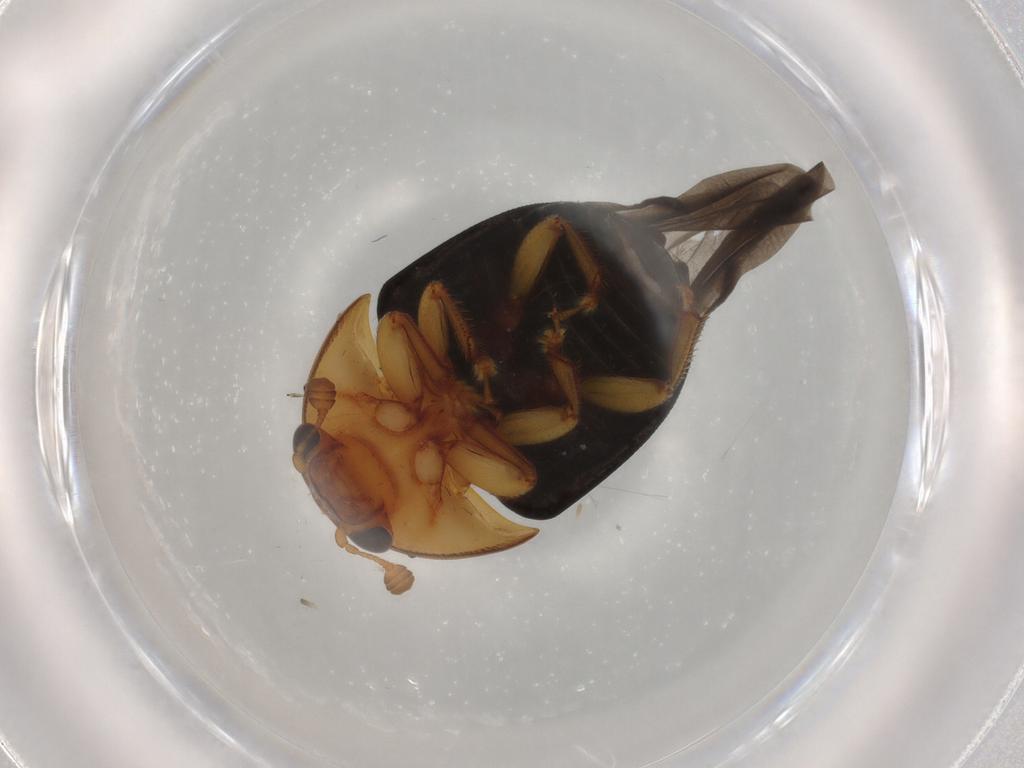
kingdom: Animalia
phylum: Arthropoda
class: Insecta
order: Coleoptera
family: Nitidulidae
